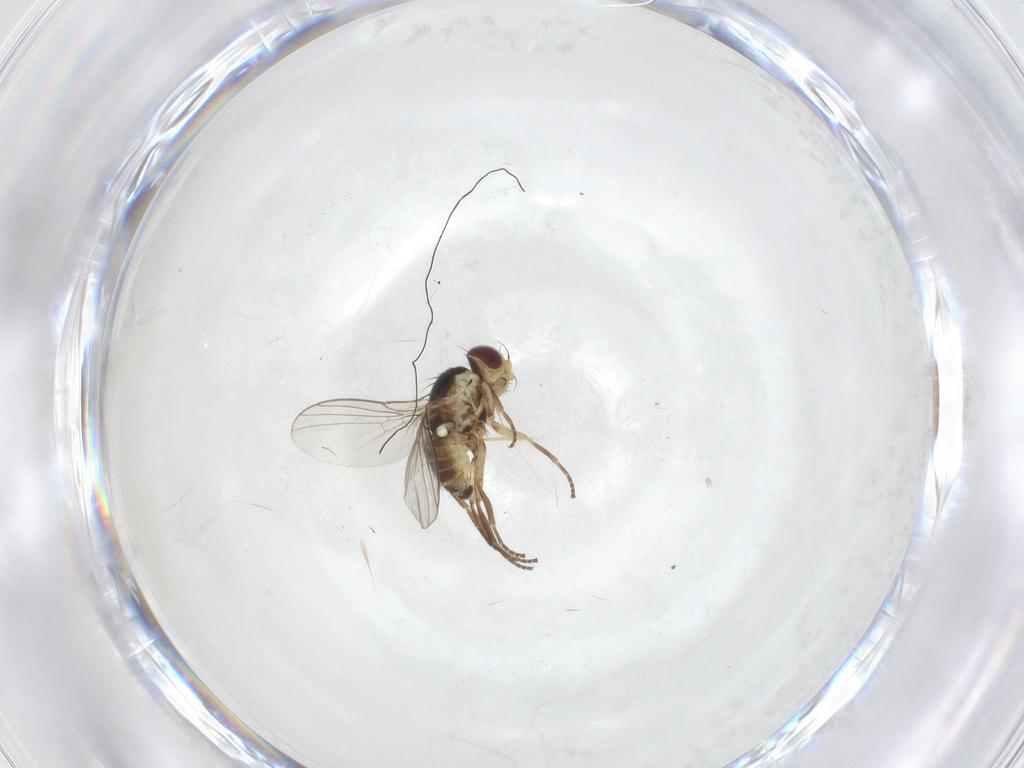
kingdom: Animalia
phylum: Arthropoda
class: Insecta
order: Diptera
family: Agromyzidae
